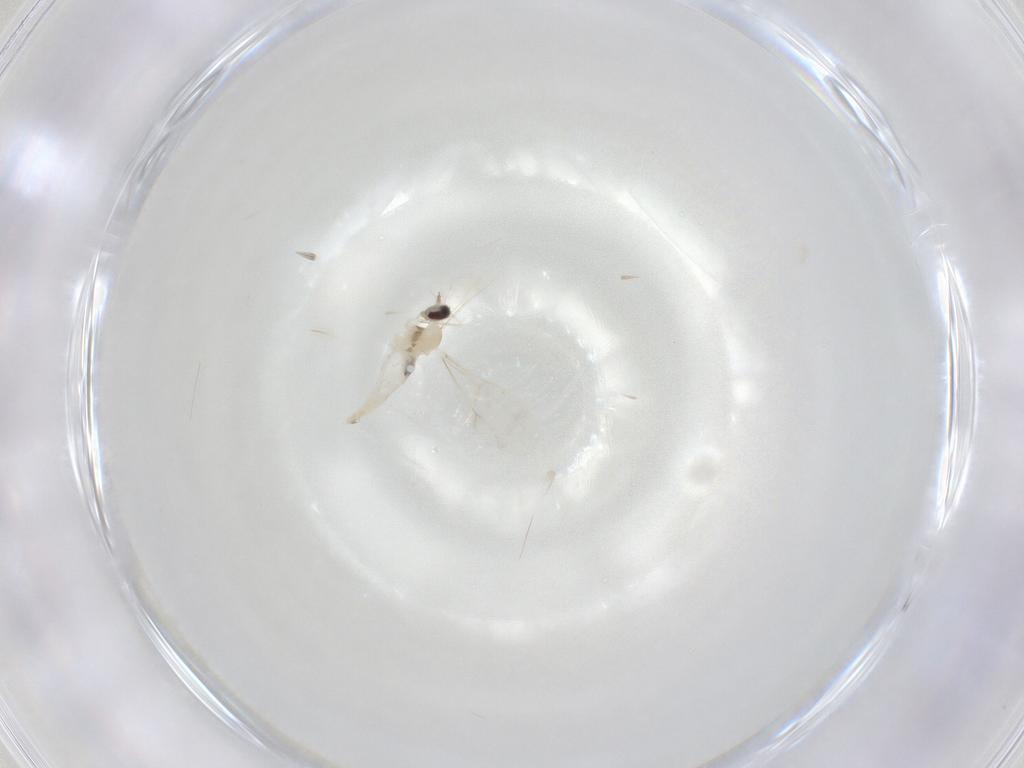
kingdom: Animalia
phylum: Arthropoda
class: Insecta
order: Diptera
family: Cecidomyiidae
